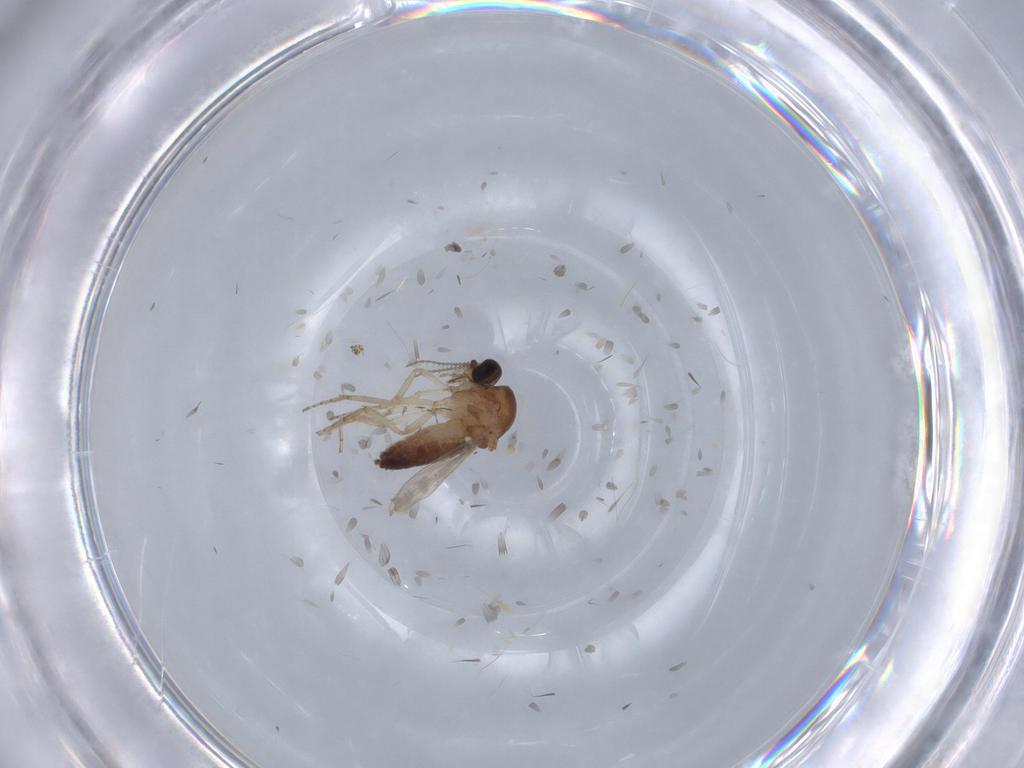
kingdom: Animalia
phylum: Arthropoda
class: Insecta
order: Diptera
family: Ceratopogonidae
